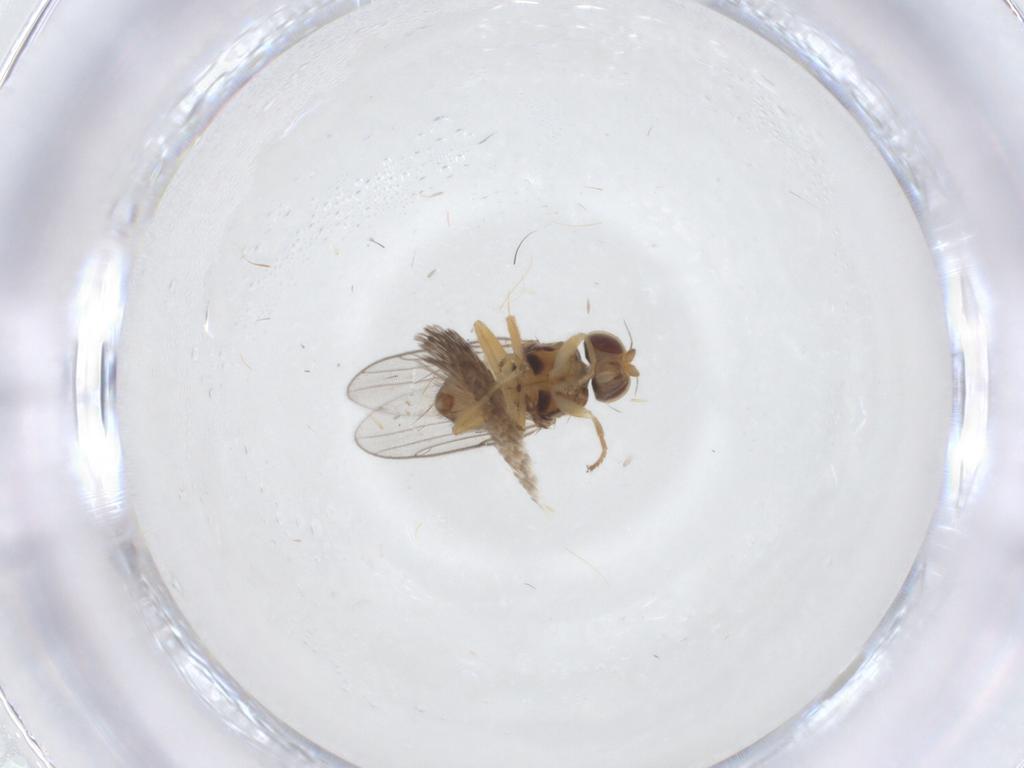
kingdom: Animalia
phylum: Arthropoda
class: Insecta
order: Diptera
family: Chloropidae
